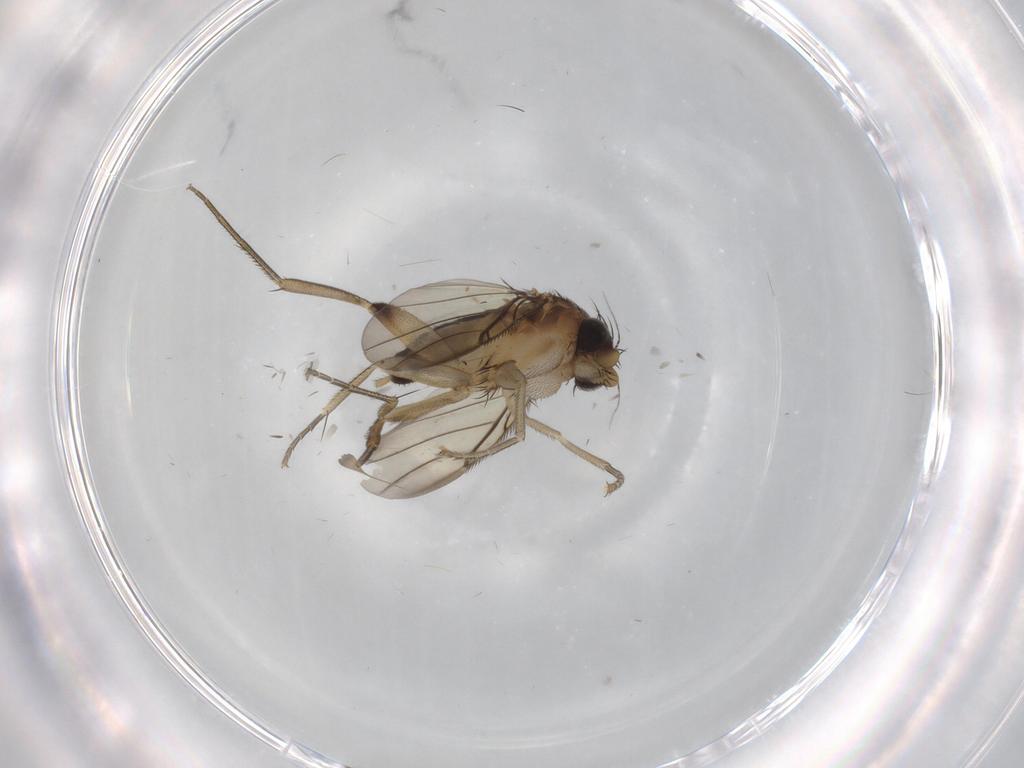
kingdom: Animalia
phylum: Arthropoda
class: Insecta
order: Diptera
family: Phoridae
